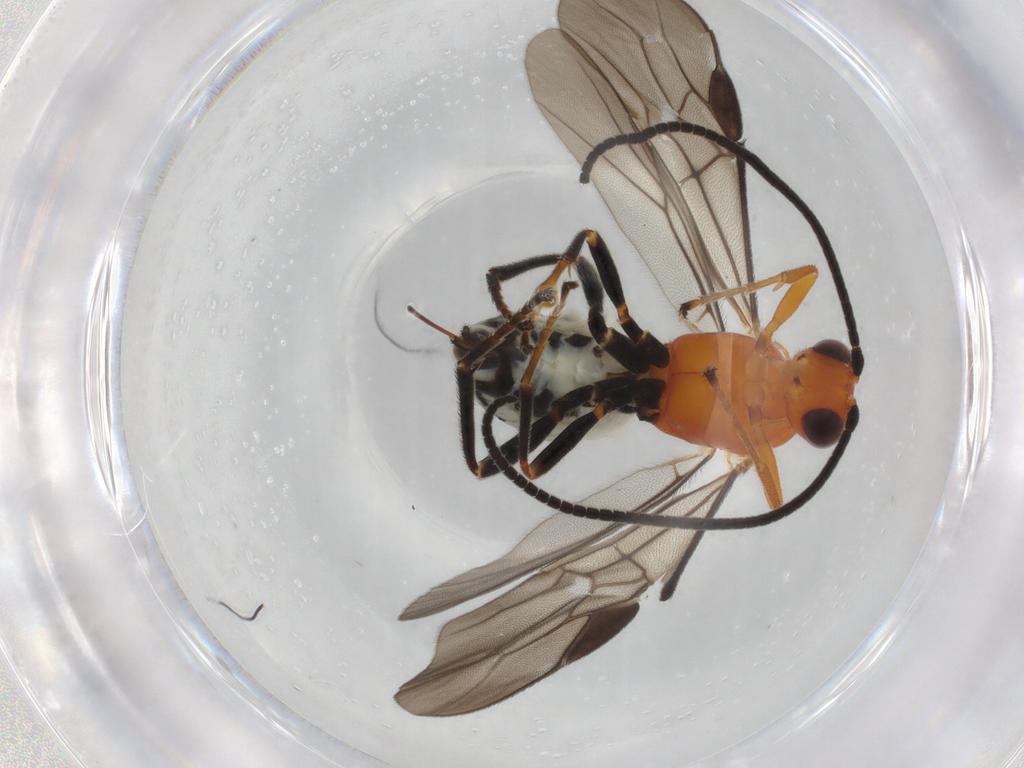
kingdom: Animalia
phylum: Arthropoda
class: Insecta
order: Hymenoptera
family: Braconidae
